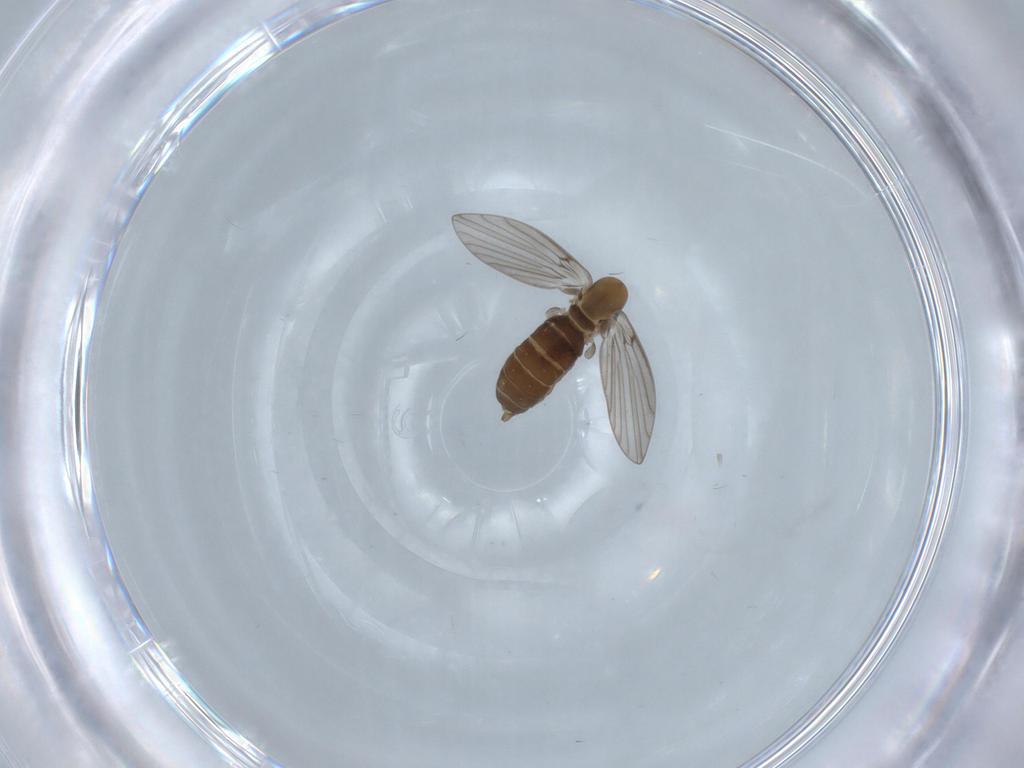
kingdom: Animalia
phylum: Arthropoda
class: Insecta
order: Diptera
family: Psychodidae
